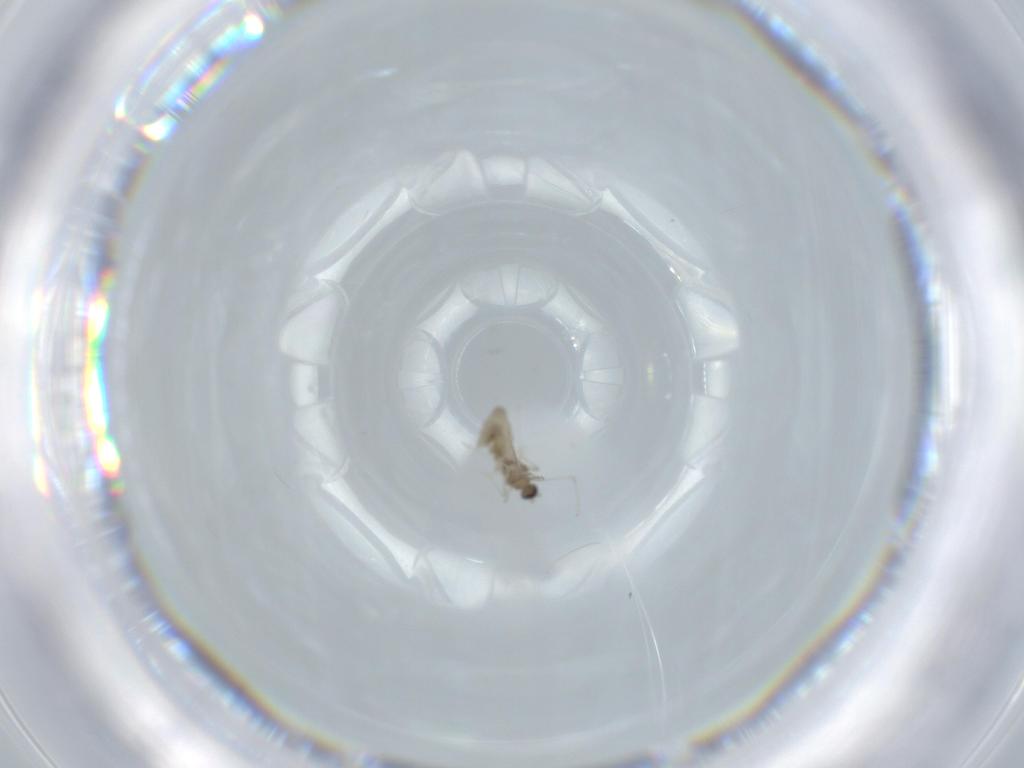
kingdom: Animalia
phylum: Arthropoda
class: Insecta
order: Diptera
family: Cecidomyiidae
